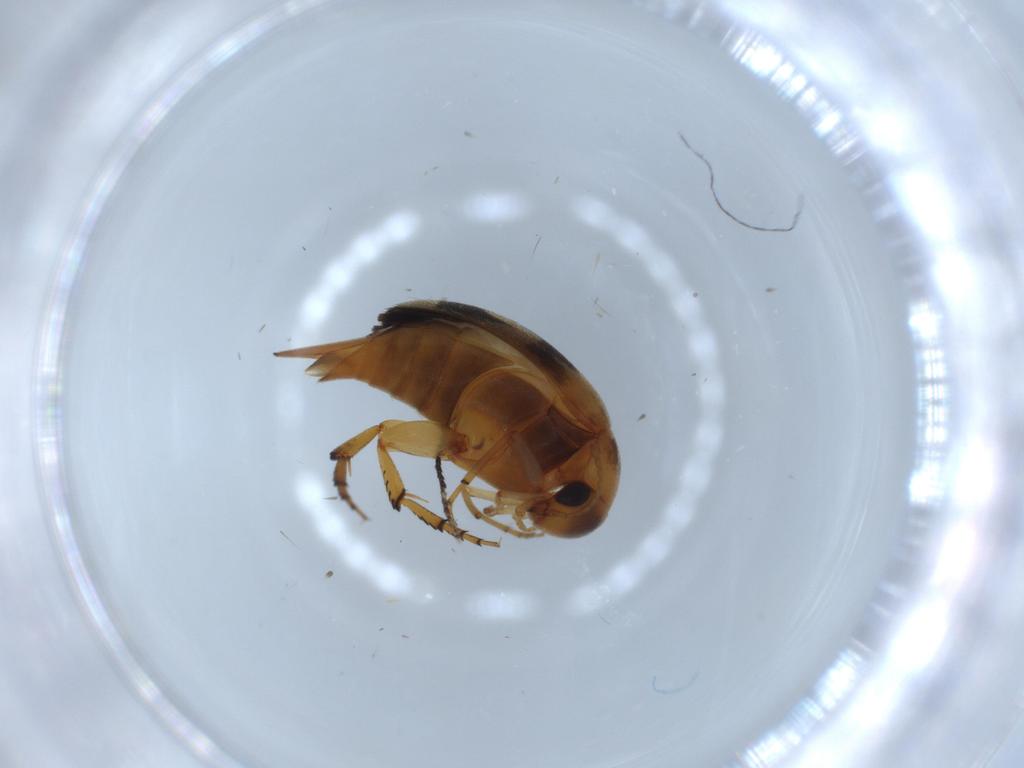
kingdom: Animalia
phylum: Arthropoda
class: Insecta
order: Coleoptera
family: Mordellidae
